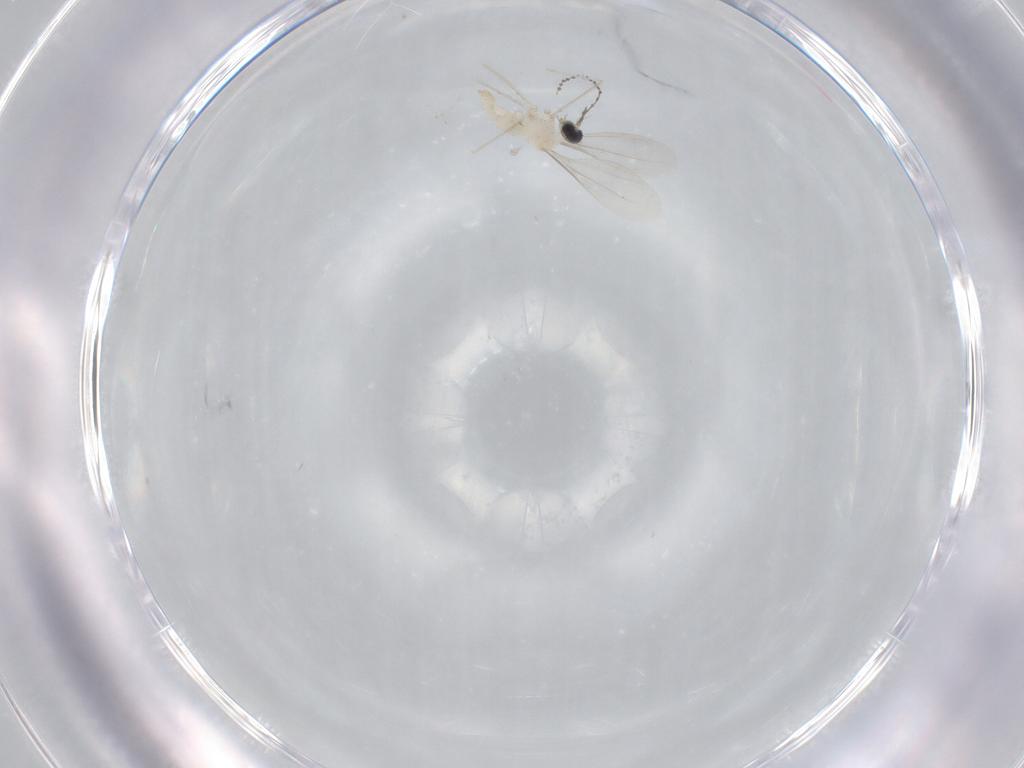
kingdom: Animalia
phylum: Arthropoda
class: Insecta
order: Diptera
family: Cecidomyiidae
